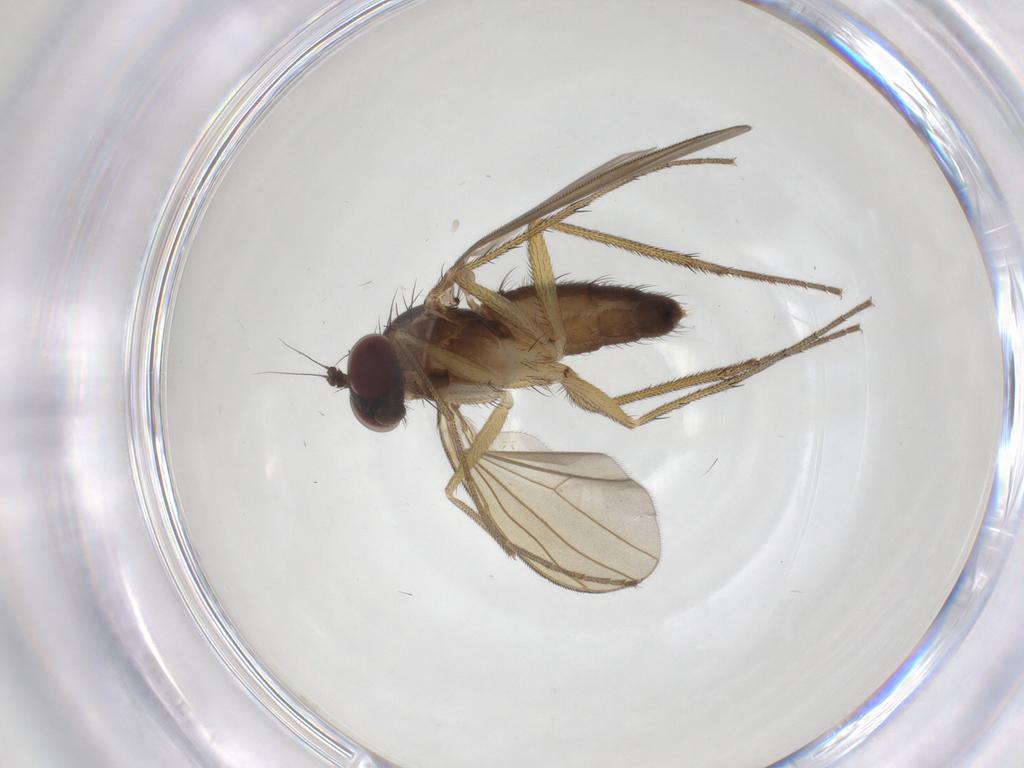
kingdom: Animalia
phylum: Arthropoda
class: Insecta
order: Diptera
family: Dolichopodidae
